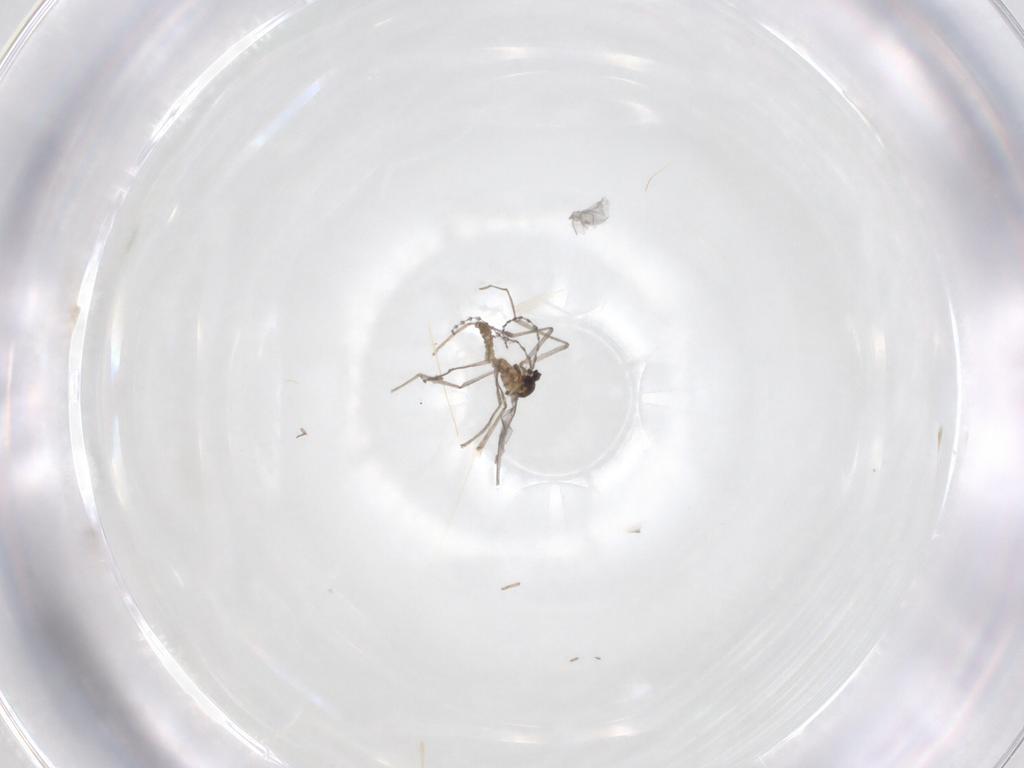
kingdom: Animalia
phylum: Arthropoda
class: Insecta
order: Diptera
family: Cecidomyiidae
